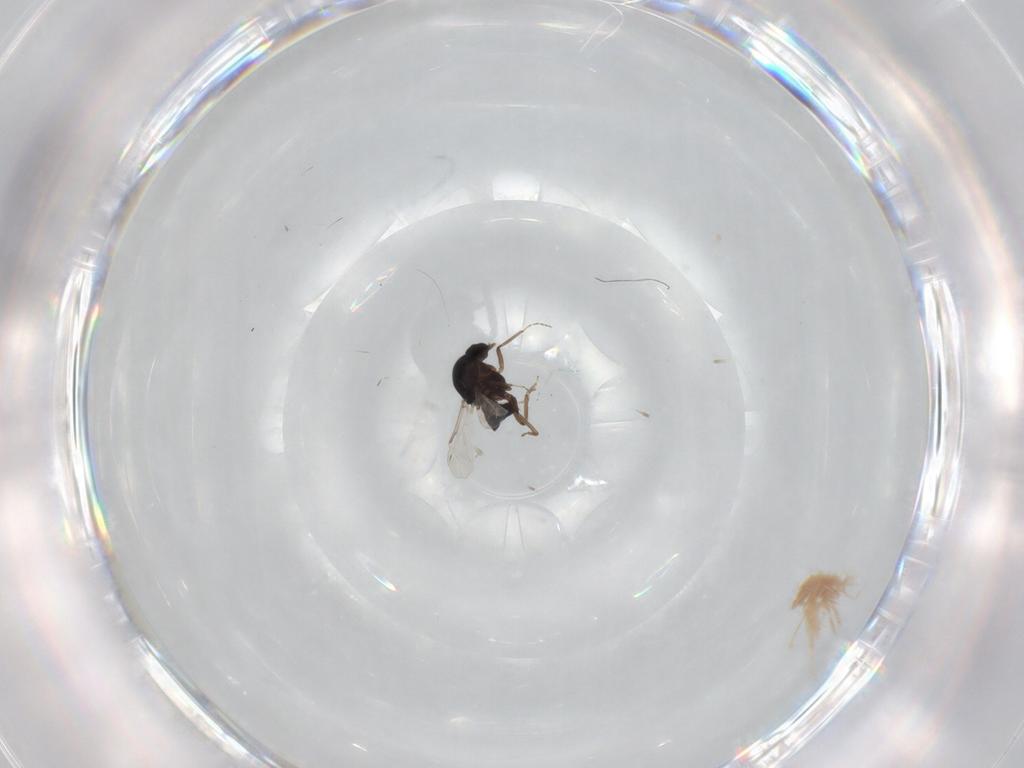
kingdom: Animalia
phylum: Arthropoda
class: Insecta
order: Diptera
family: Ceratopogonidae
